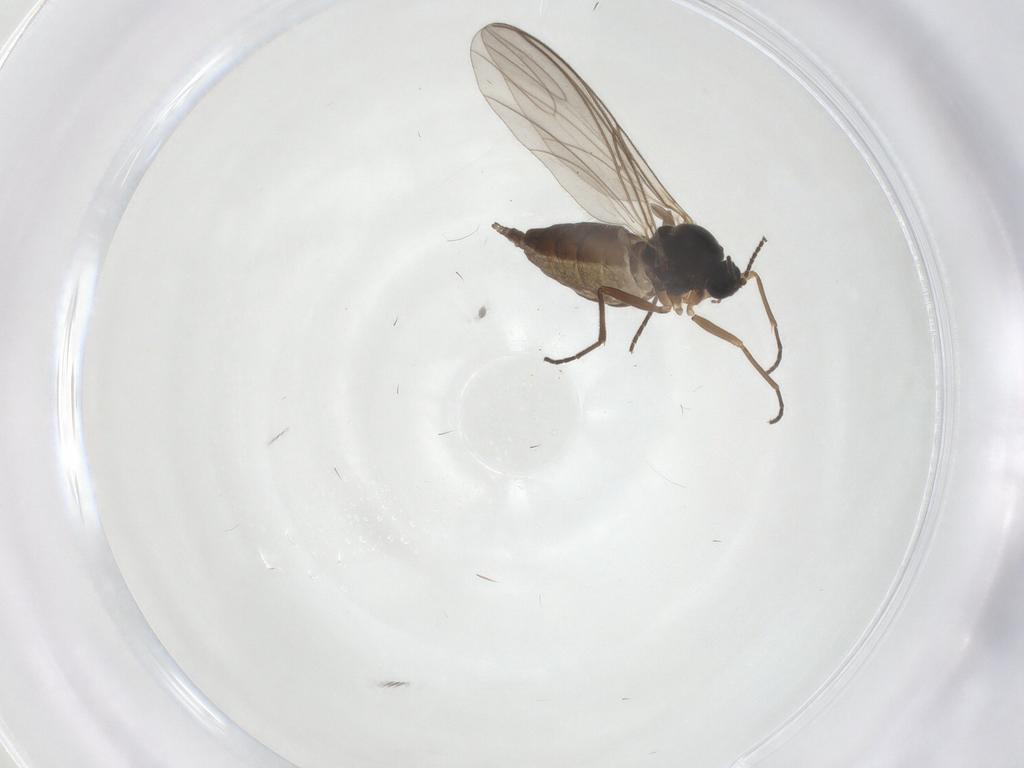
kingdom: Animalia
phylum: Arthropoda
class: Insecta
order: Diptera
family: Sciaridae
